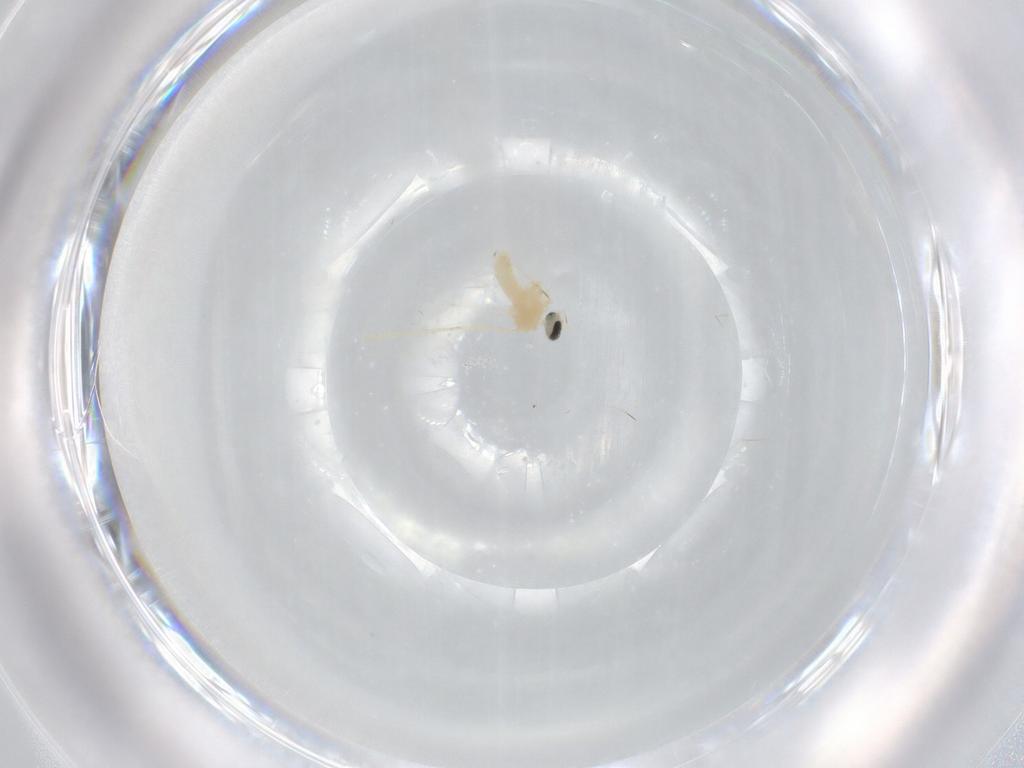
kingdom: Animalia
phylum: Arthropoda
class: Insecta
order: Diptera
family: Cecidomyiidae
